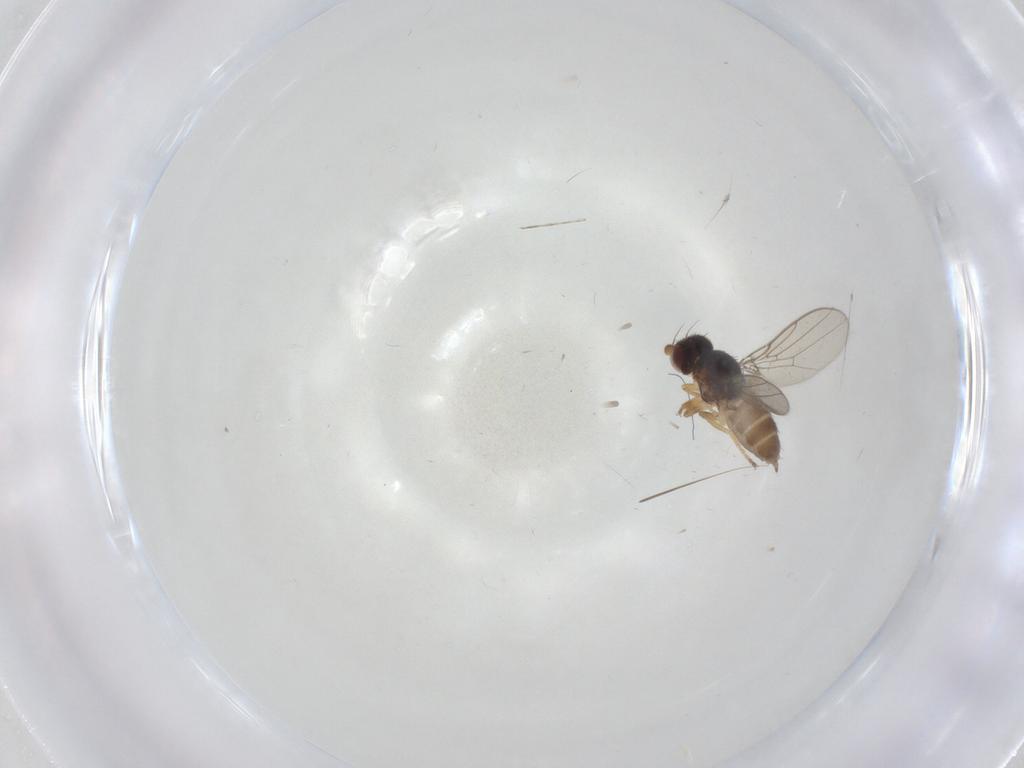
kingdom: Animalia
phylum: Arthropoda
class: Insecta
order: Diptera
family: Chloropidae
